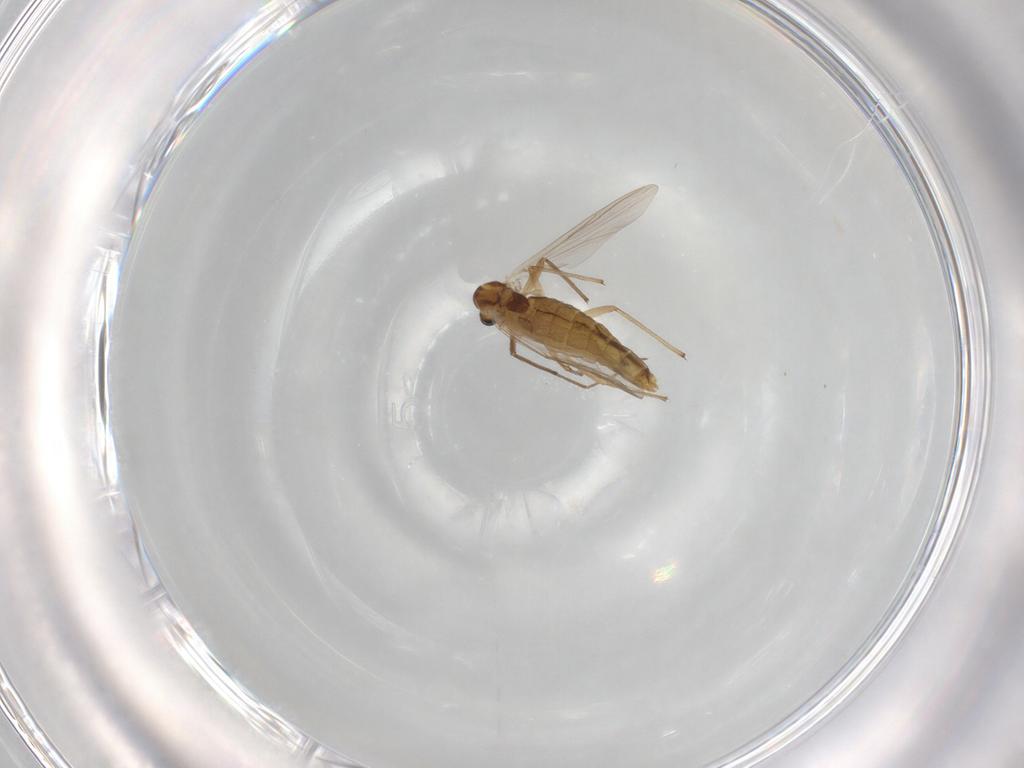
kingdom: Animalia
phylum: Arthropoda
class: Insecta
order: Diptera
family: Chironomidae
